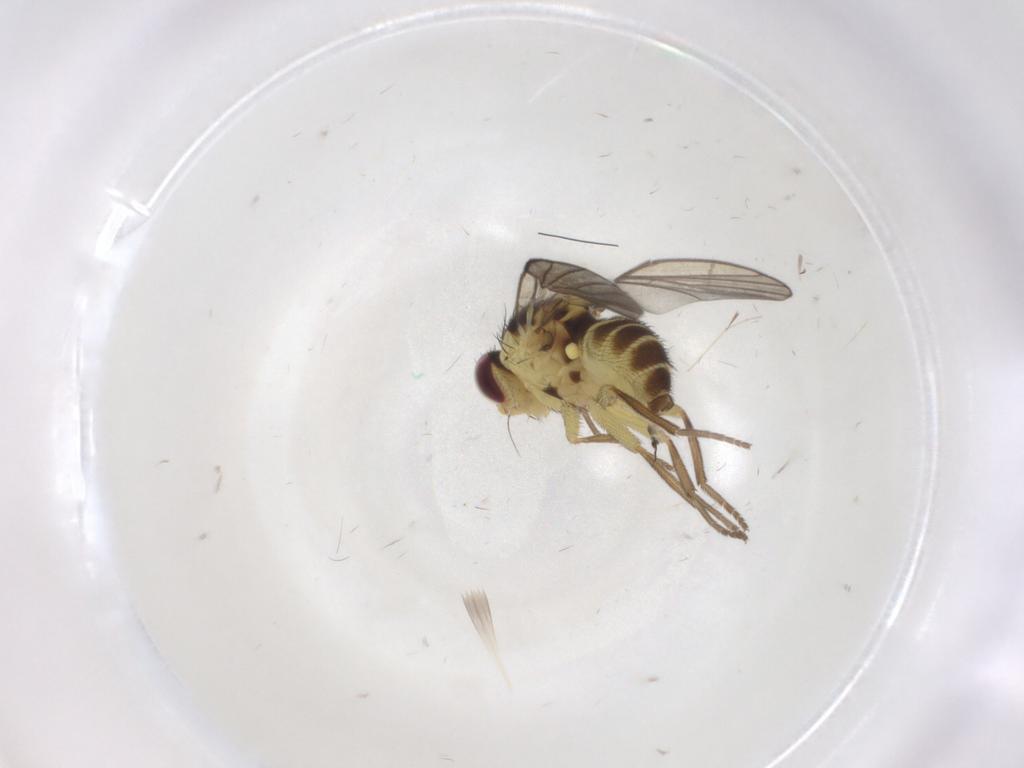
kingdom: Animalia
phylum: Arthropoda
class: Insecta
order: Diptera
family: Agromyzidae
